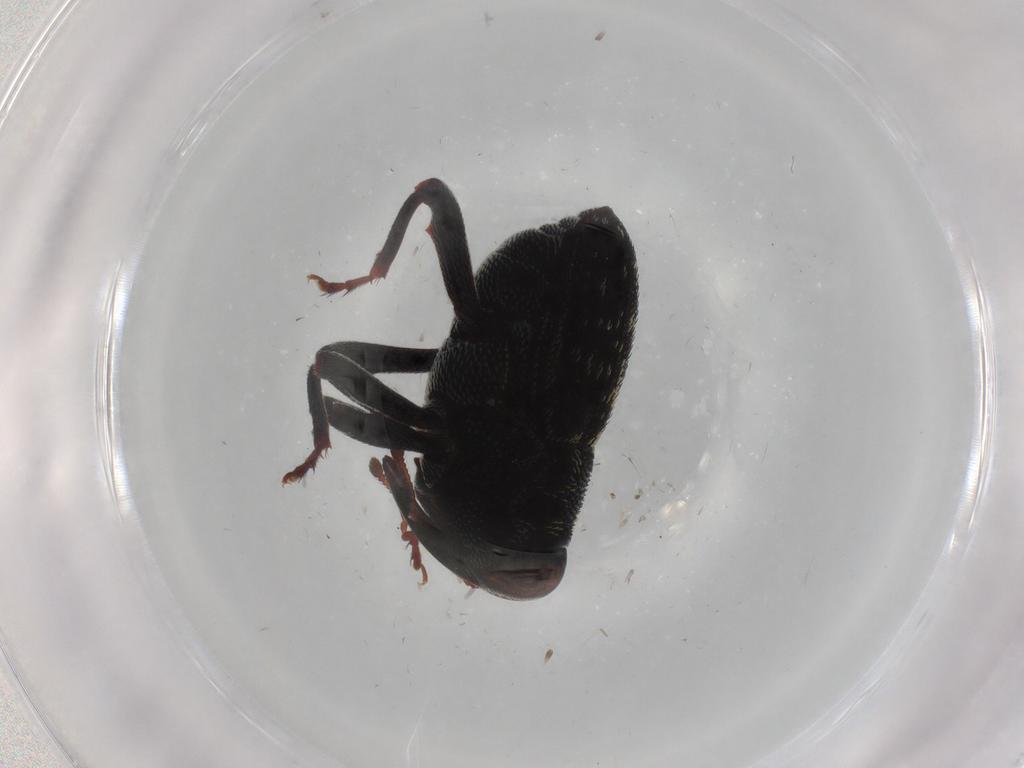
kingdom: Animalia
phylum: Arthropoda
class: Insecta
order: Coleoptera
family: Curculionidae
